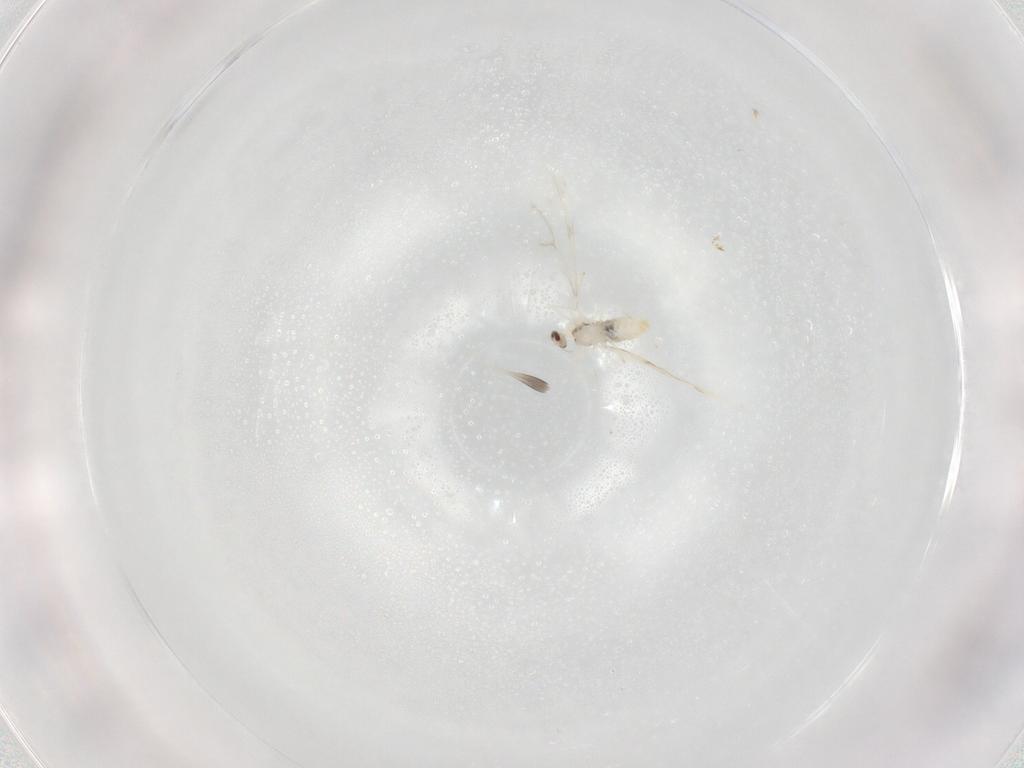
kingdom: Animalia
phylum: Arthropoda
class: Insecta
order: Diptera
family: Cecidomyiidae
